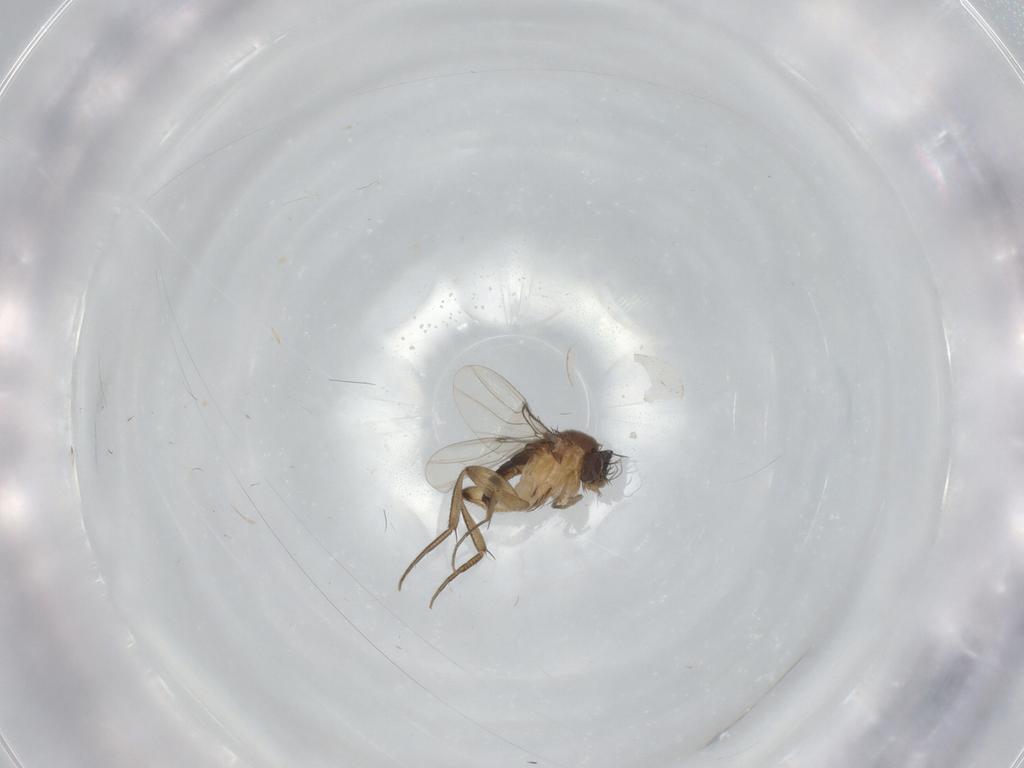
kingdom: Animalia
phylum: Arthropoda
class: Insecta
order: Diptera
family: Phoridae
